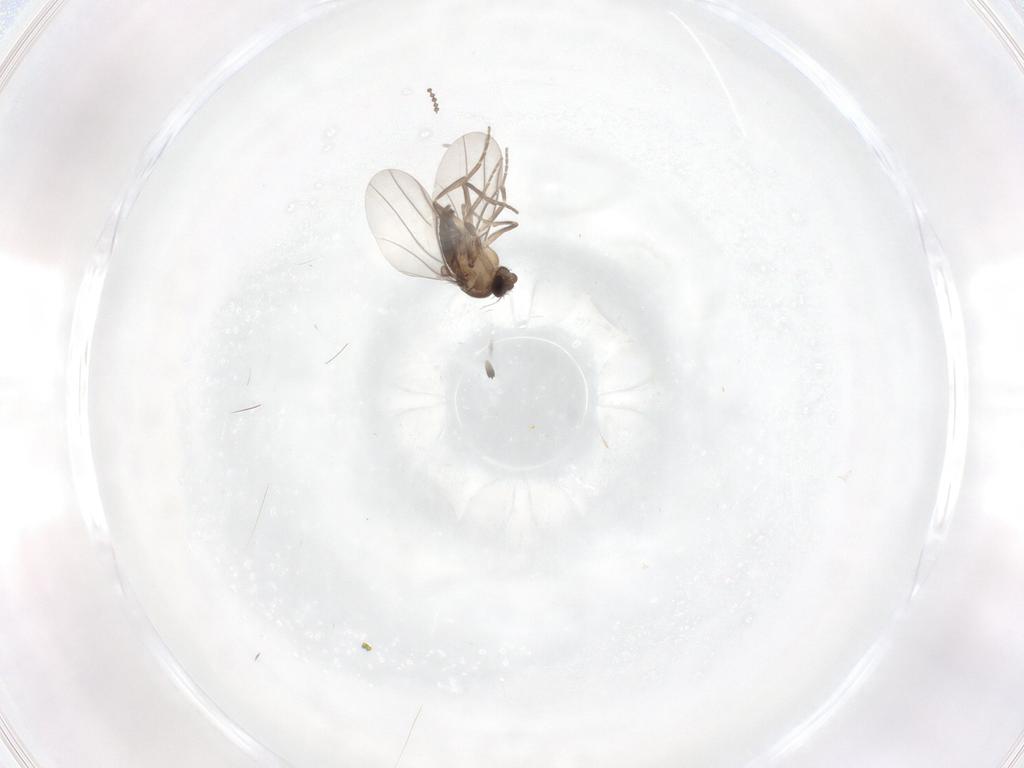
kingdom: Animalia
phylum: Arthropoda
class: Insecta
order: Diptera
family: Phoridae
